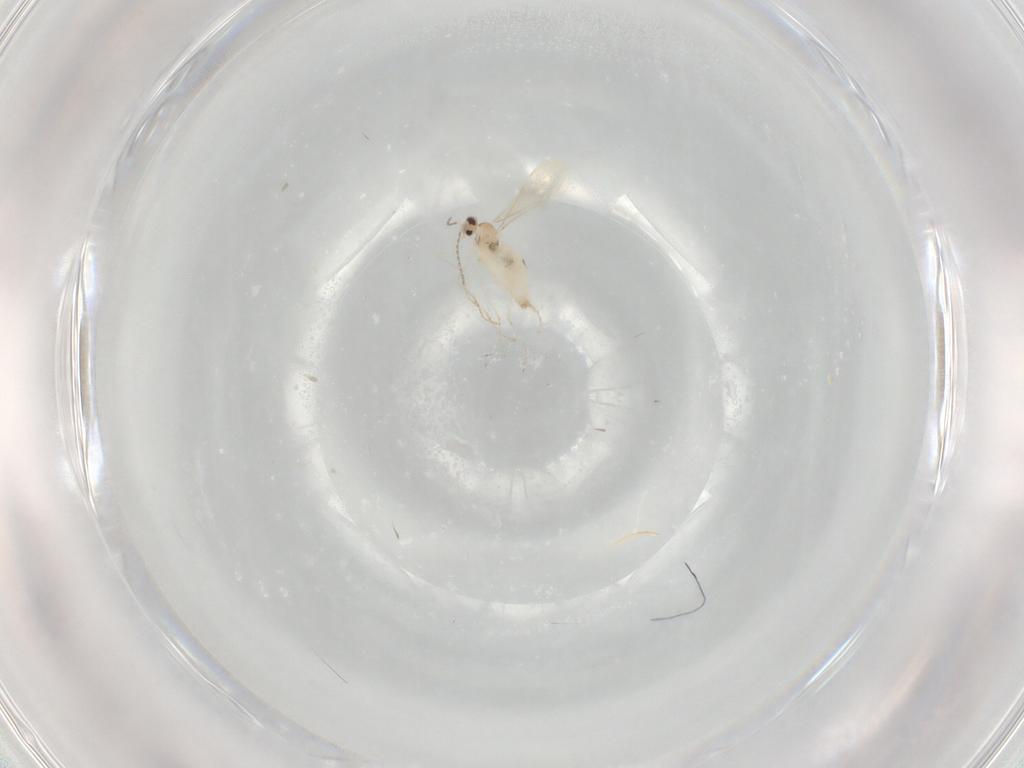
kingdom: Animalia
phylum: Arthropoda
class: Insecta
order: Diptera
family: Cecidomyiidae
